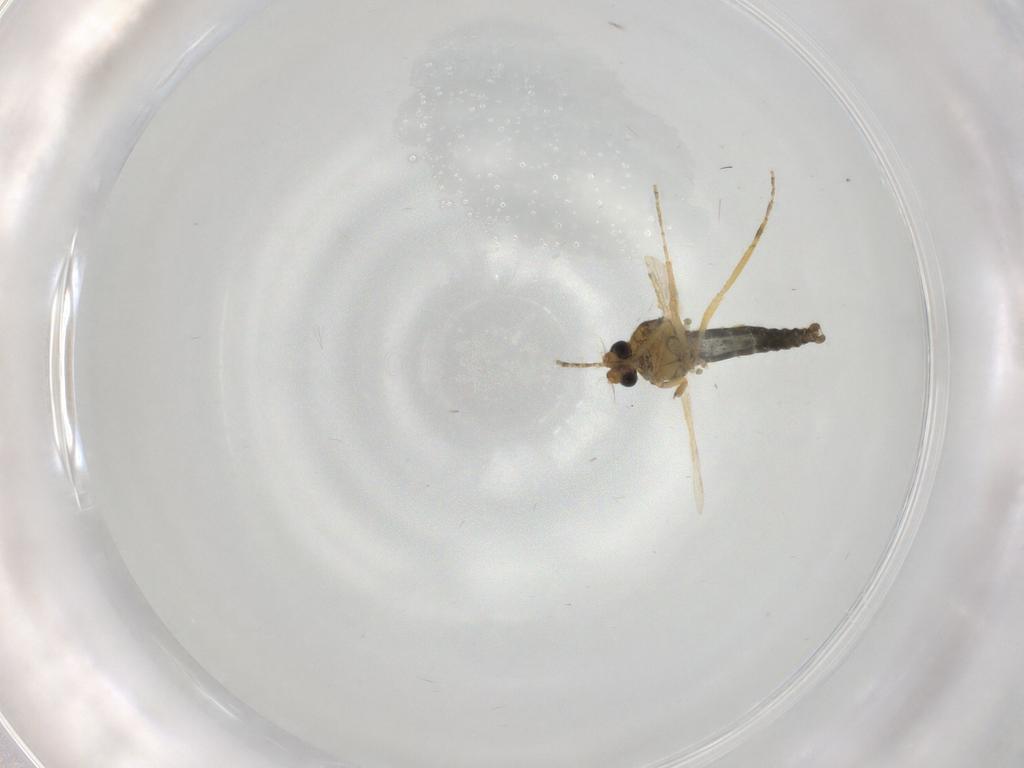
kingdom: Animalia
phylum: Arthropoda
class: Insecta
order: Diptera
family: Ceratopogonidae
